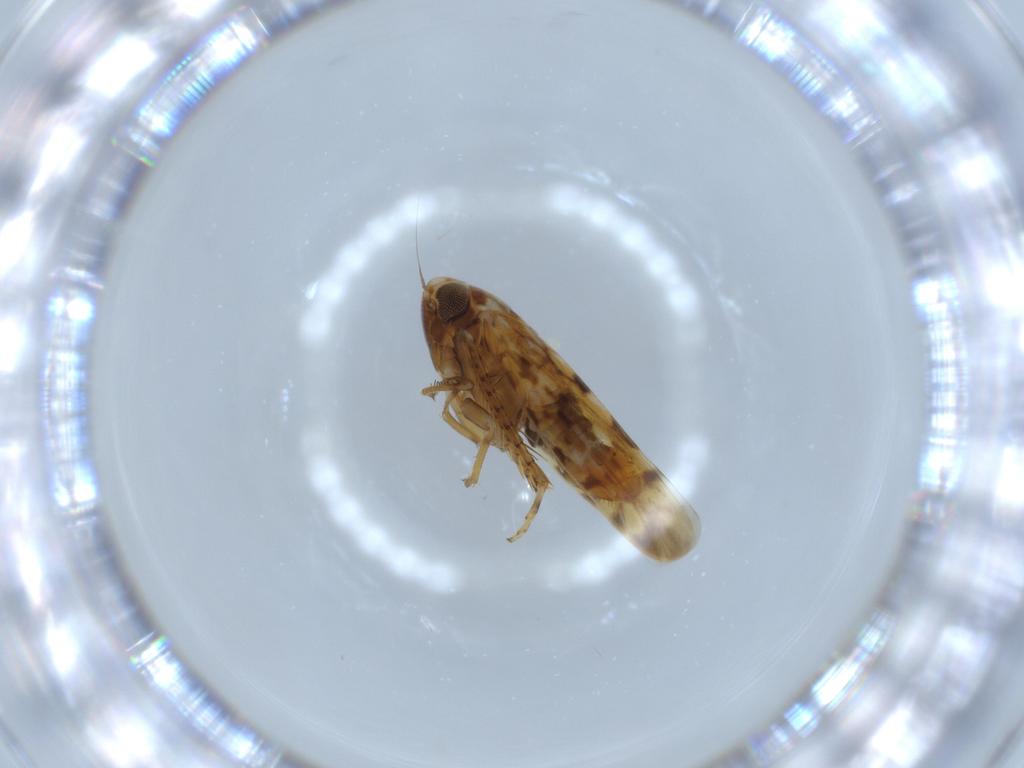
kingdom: Animalia
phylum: Arthropoda
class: Insecta
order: Hemiptera
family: Cicadellidae
